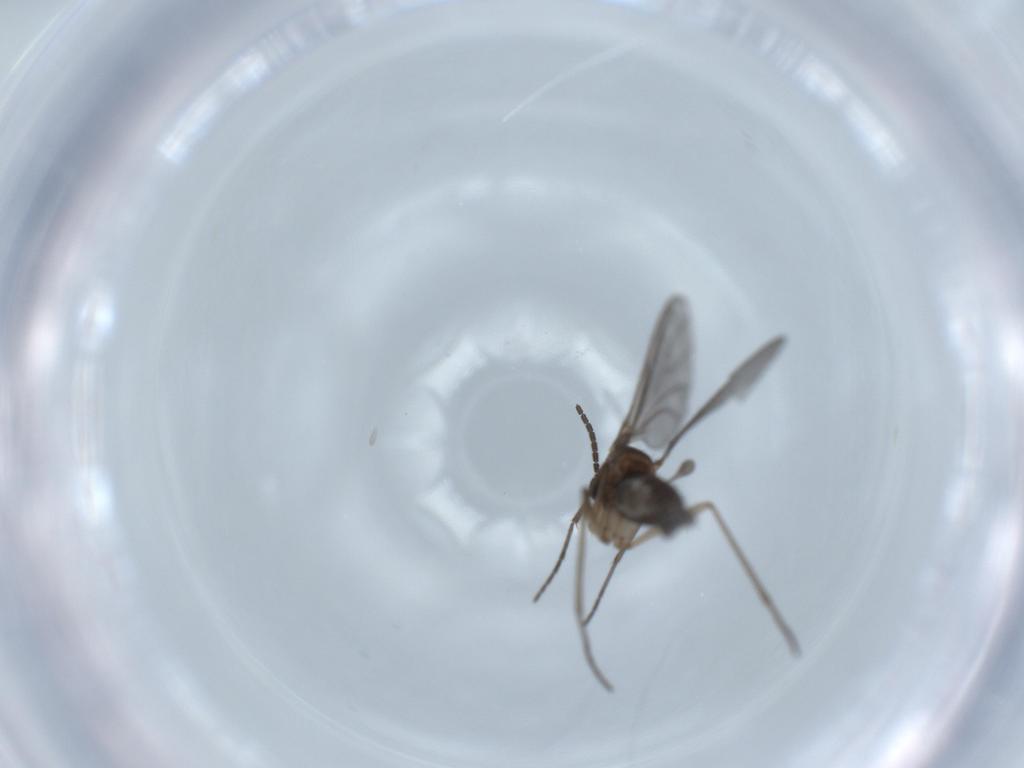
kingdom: Animalia
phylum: Arthropoda
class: Insecta
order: Diptera
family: Sciaridae
